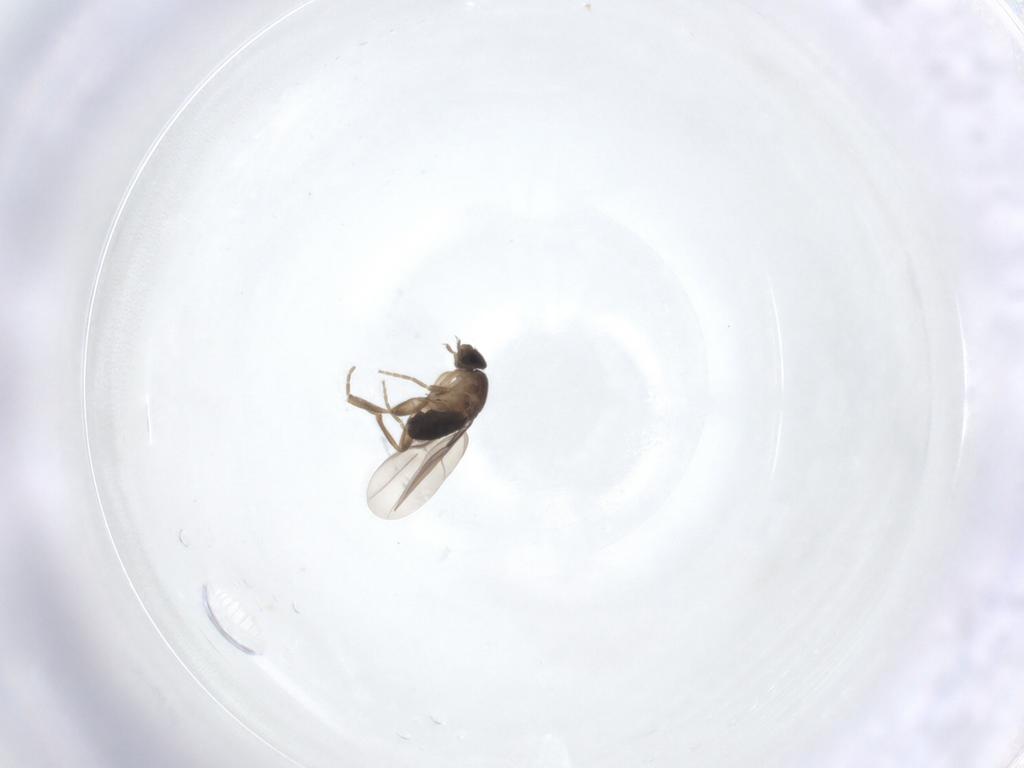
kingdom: Animalia
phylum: Arthropoda
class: Insecta
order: Diptera
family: Phoridae
